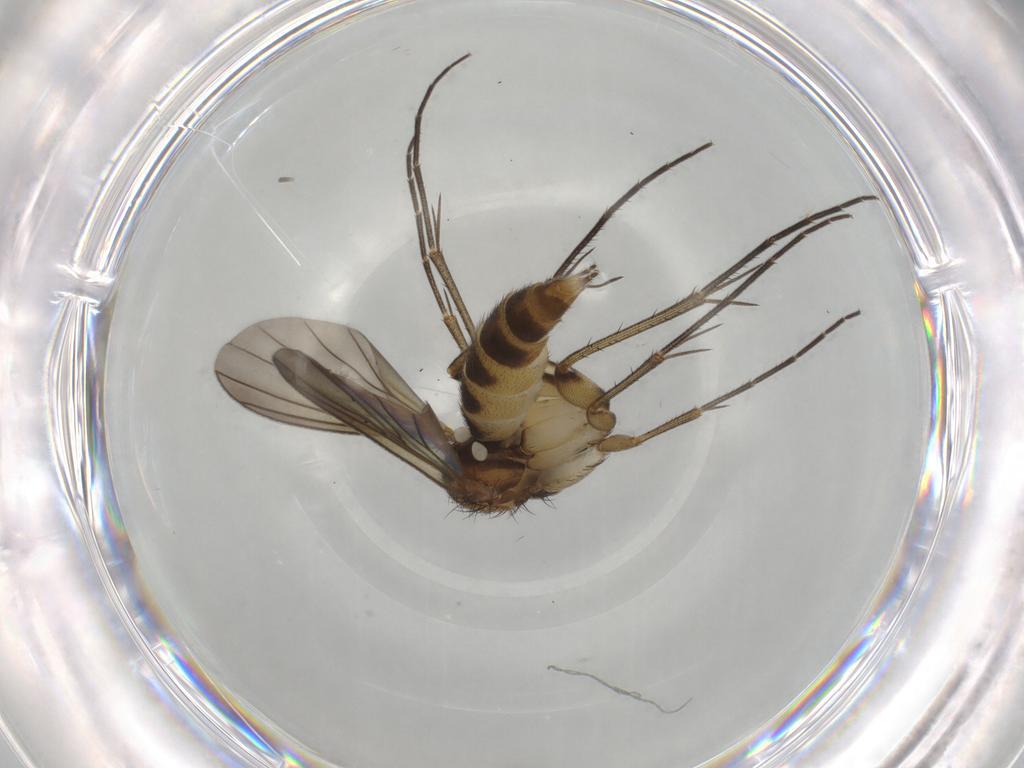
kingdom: Animalia
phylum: Arthropoda
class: Insecta
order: Diptera
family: Mycetophilidae
